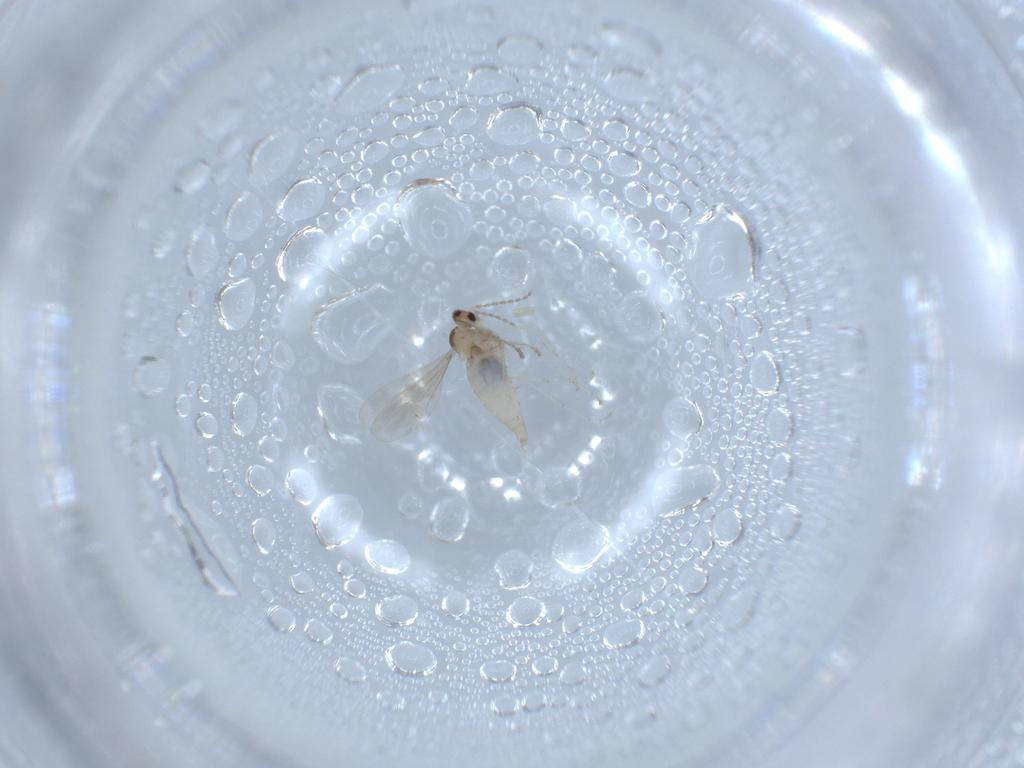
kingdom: Animalia
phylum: Arthropoda
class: Insecta
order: Diptera
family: Cecidomyiidae
